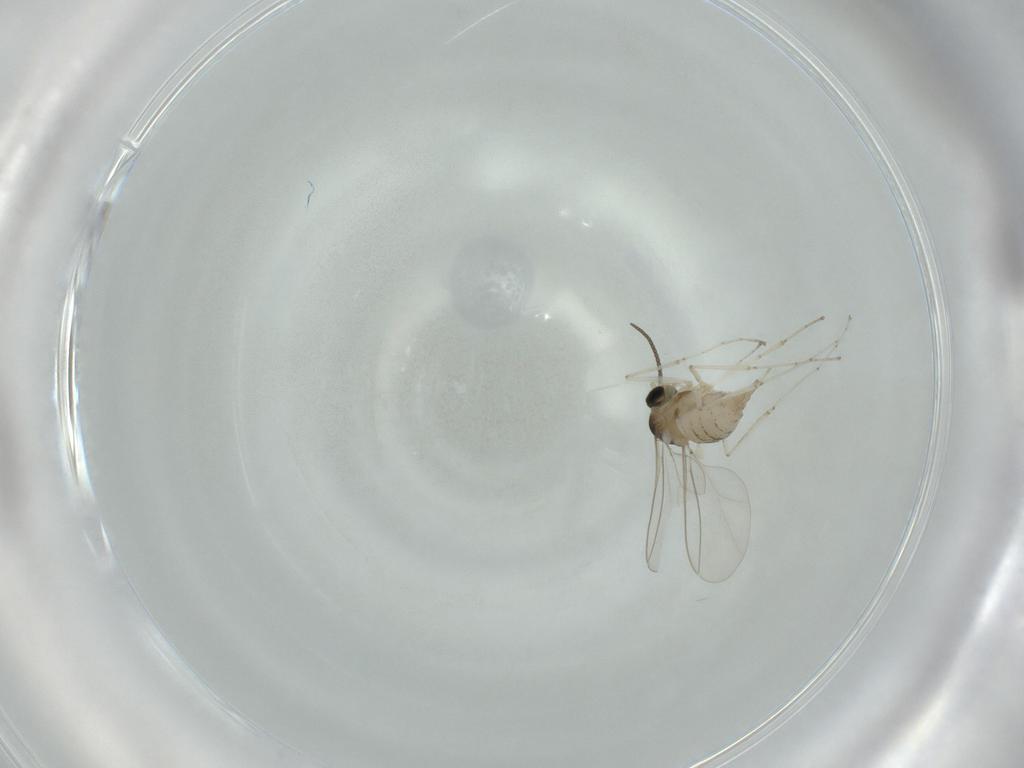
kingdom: Animalia
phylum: Arthropoda
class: Insecta
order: Diptera
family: Cecidomyiidae
